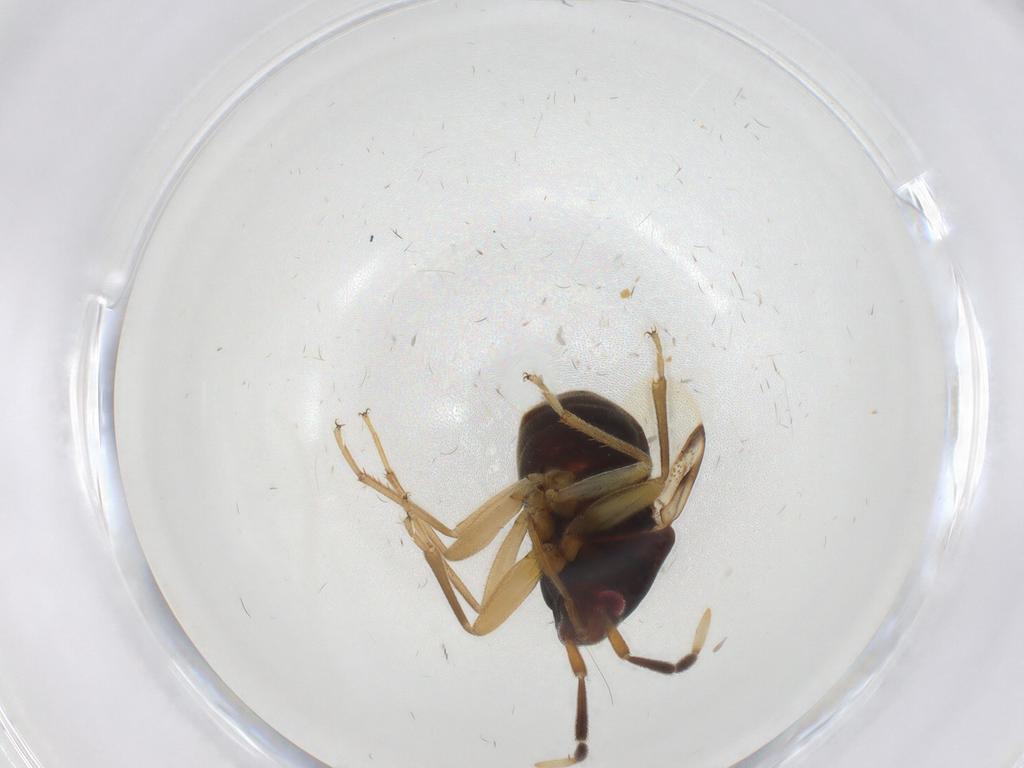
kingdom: Animalia
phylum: Arthropoda
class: Insecta
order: Hemiptera
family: Rhyparochromidae
